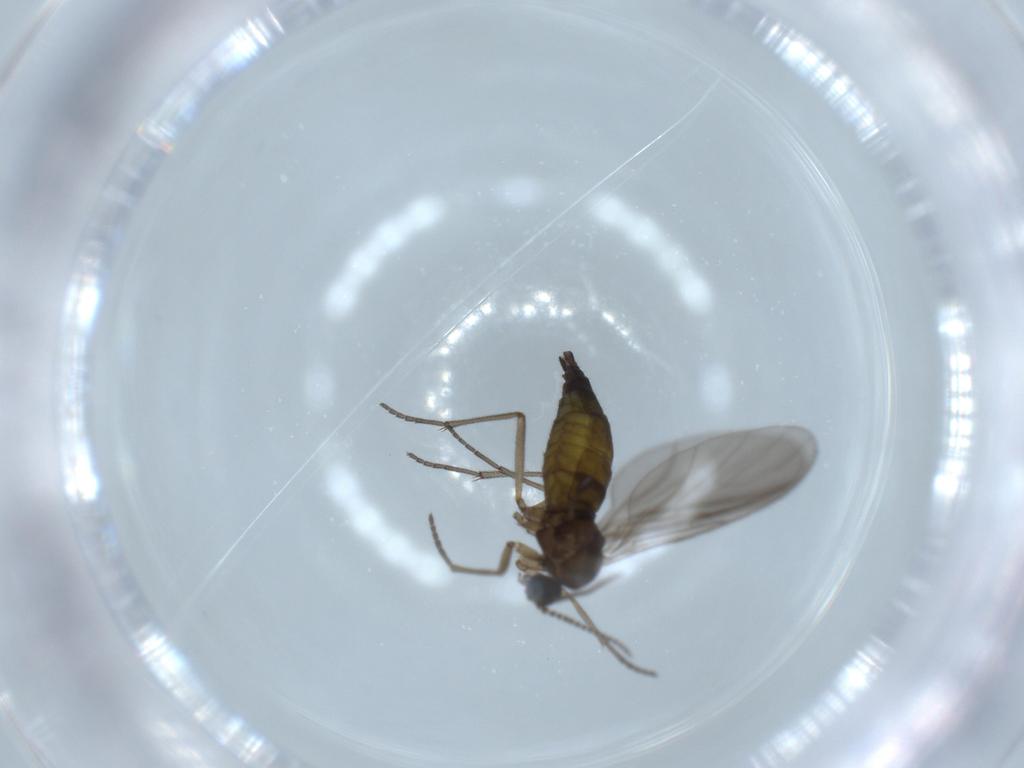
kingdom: Animalia
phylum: Arthropoda
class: Insecta
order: Diptera
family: Sciaridae
